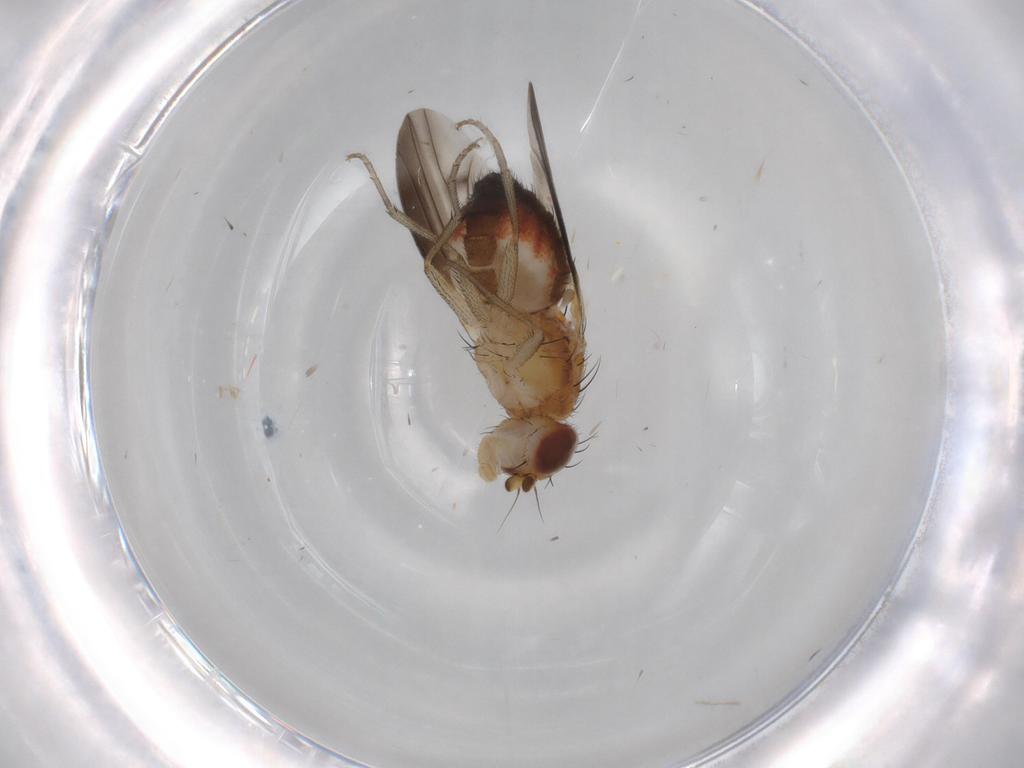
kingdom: Animalia
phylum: Arthropoda
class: Insecta
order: Diptera
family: Heleomyzidae
